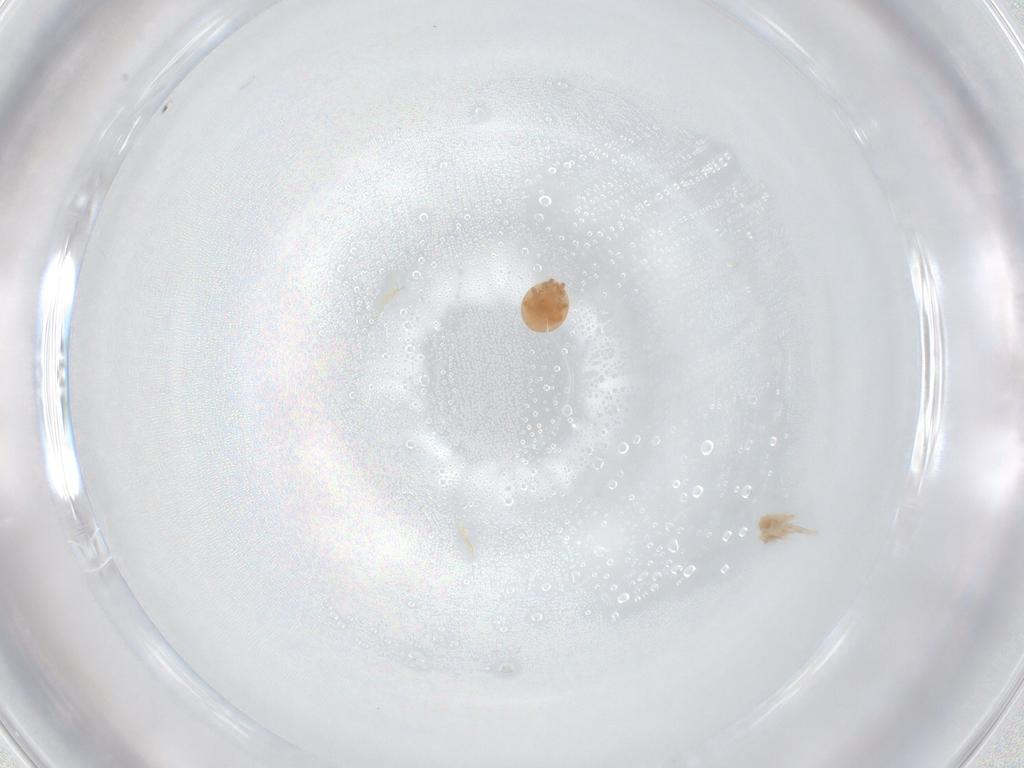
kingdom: Animalia
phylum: Arthropoda
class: Arachnida
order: Mesostigmata
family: Trematuridae
